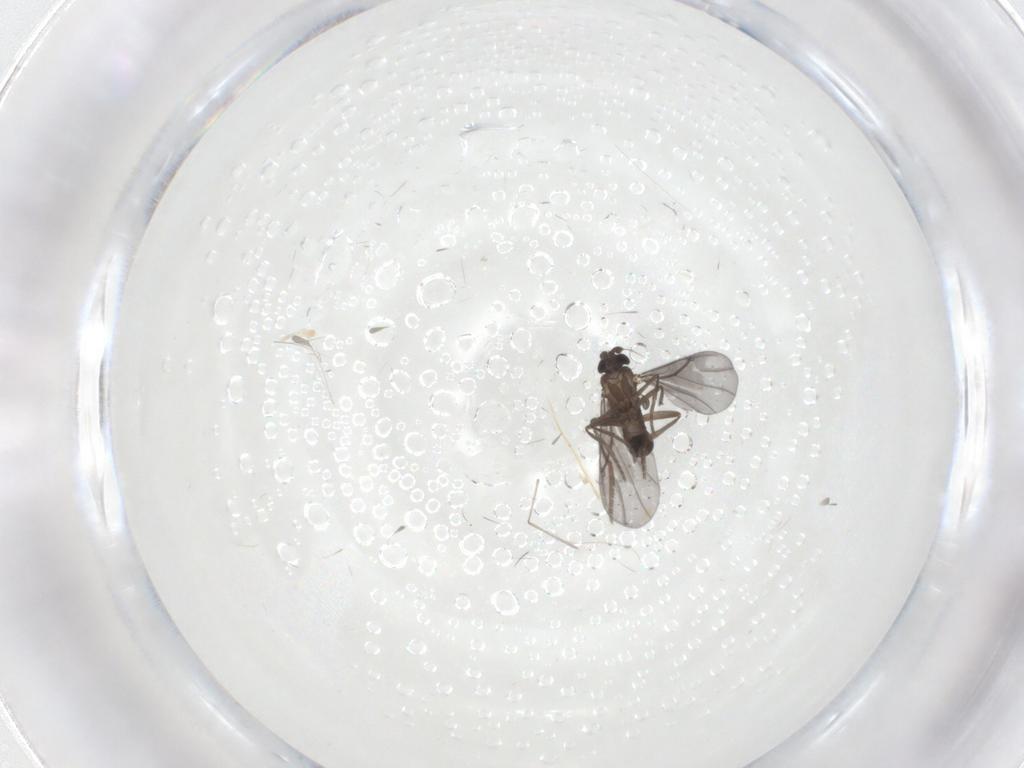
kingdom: Animalia
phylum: Arthropoda
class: Insecta
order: Diptera
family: Phoridae
